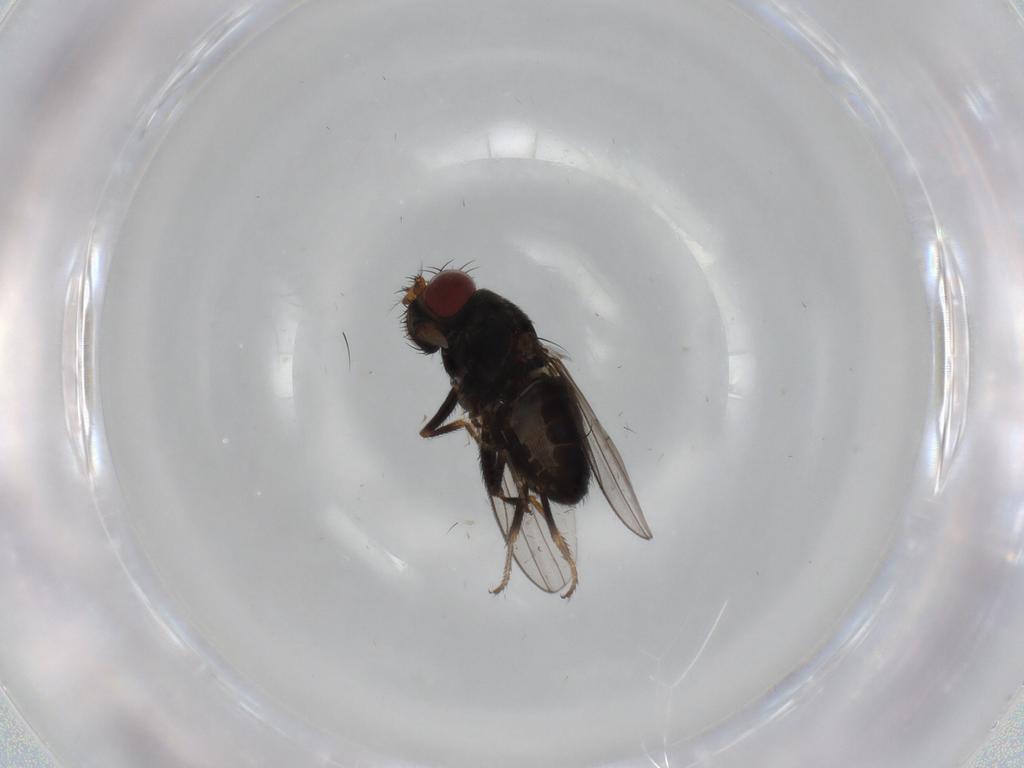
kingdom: Animalia
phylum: Arthropoda
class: Insecta
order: Diptera
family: Ephydridae
